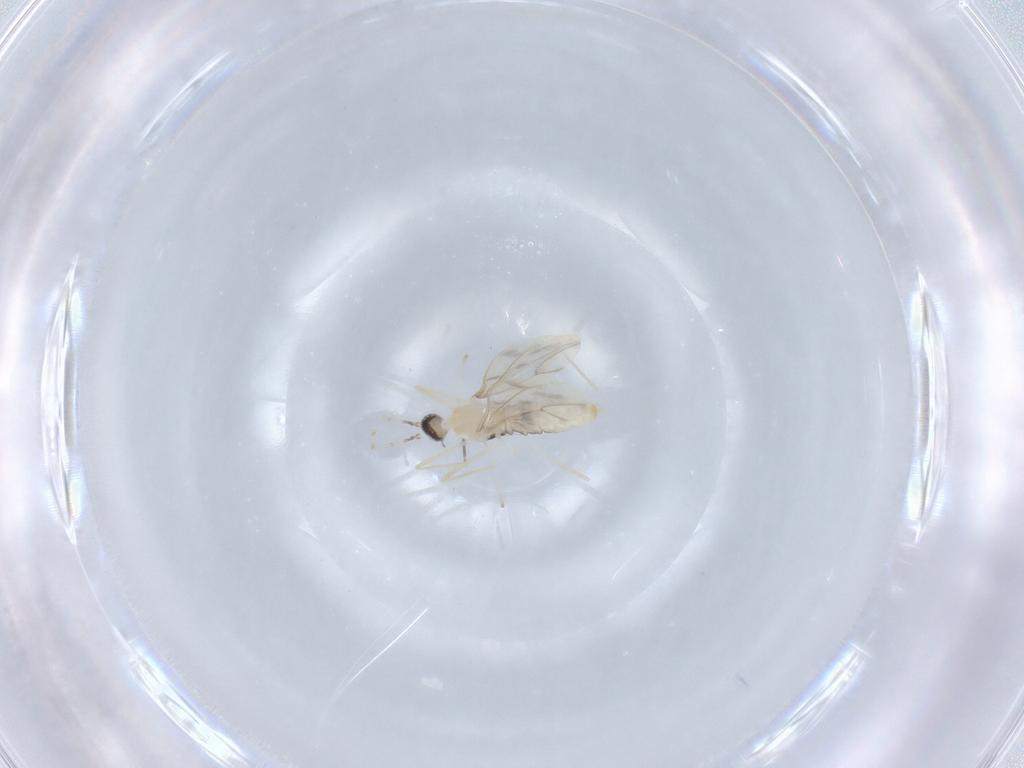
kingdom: Animalia
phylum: Arthropoda
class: Insecta
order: Diptera
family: Cecidomyiidae
